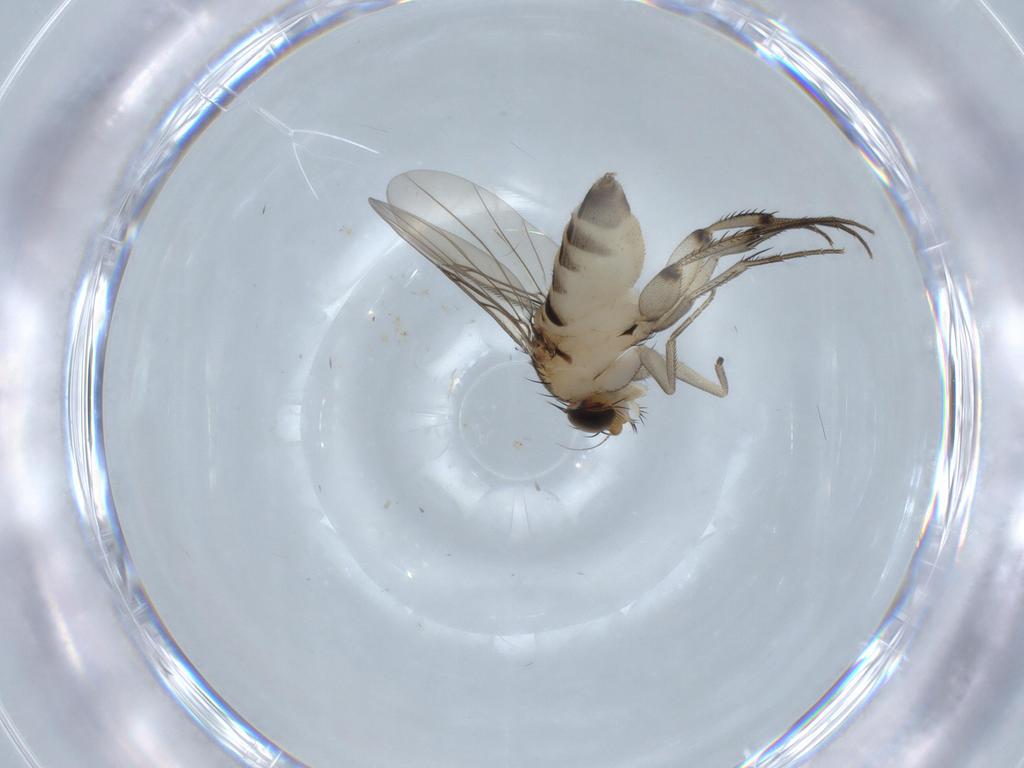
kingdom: Animalia
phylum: Arthropoda
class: Insecta
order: Diptera
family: Phoridae
